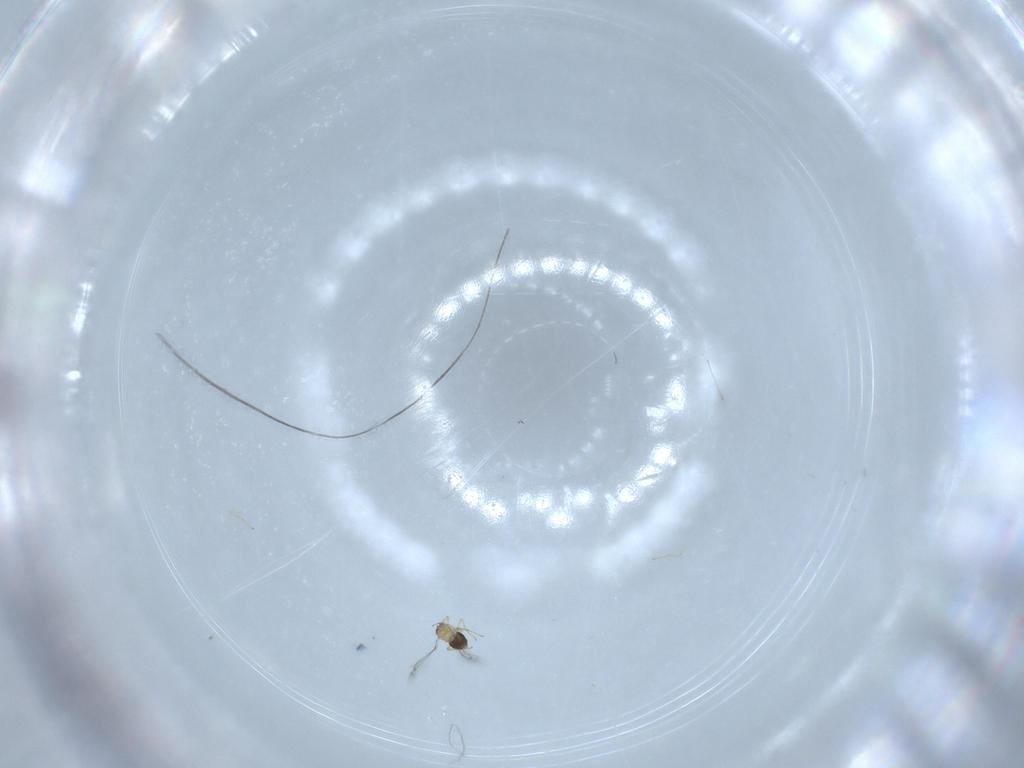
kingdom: Animalia
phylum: Arthropoda
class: Insecta
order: Hymenoptera
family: Mymaridae
